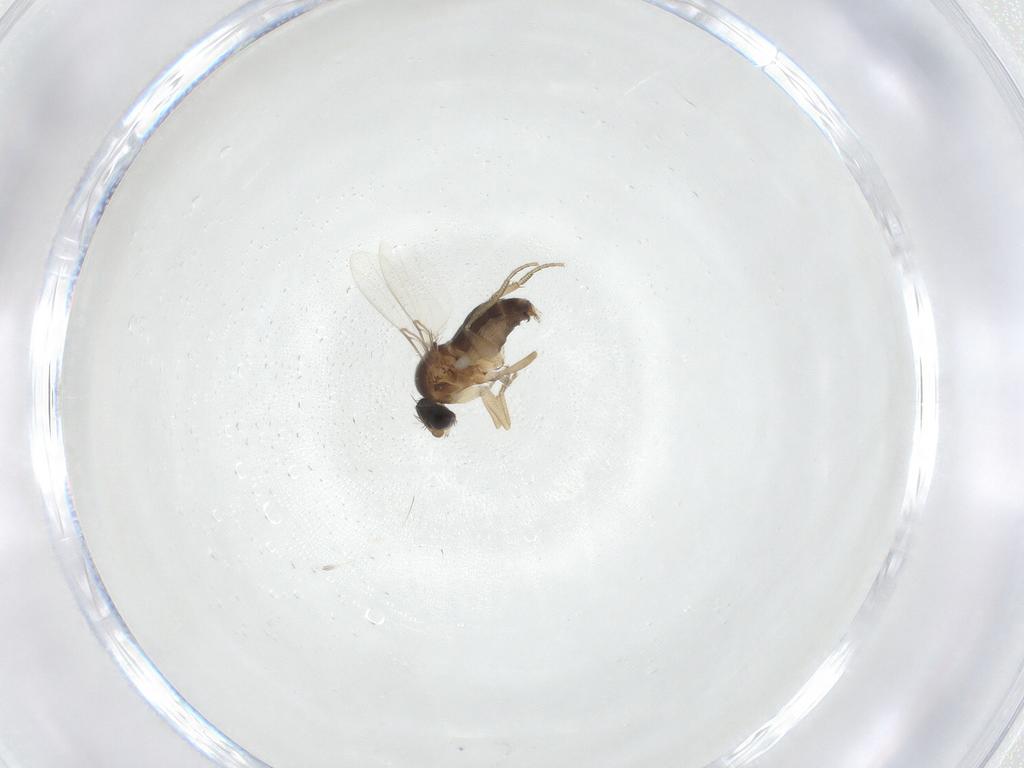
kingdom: Animalia
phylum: Arthropoda
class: Insecta
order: Diptera
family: Phoridae
